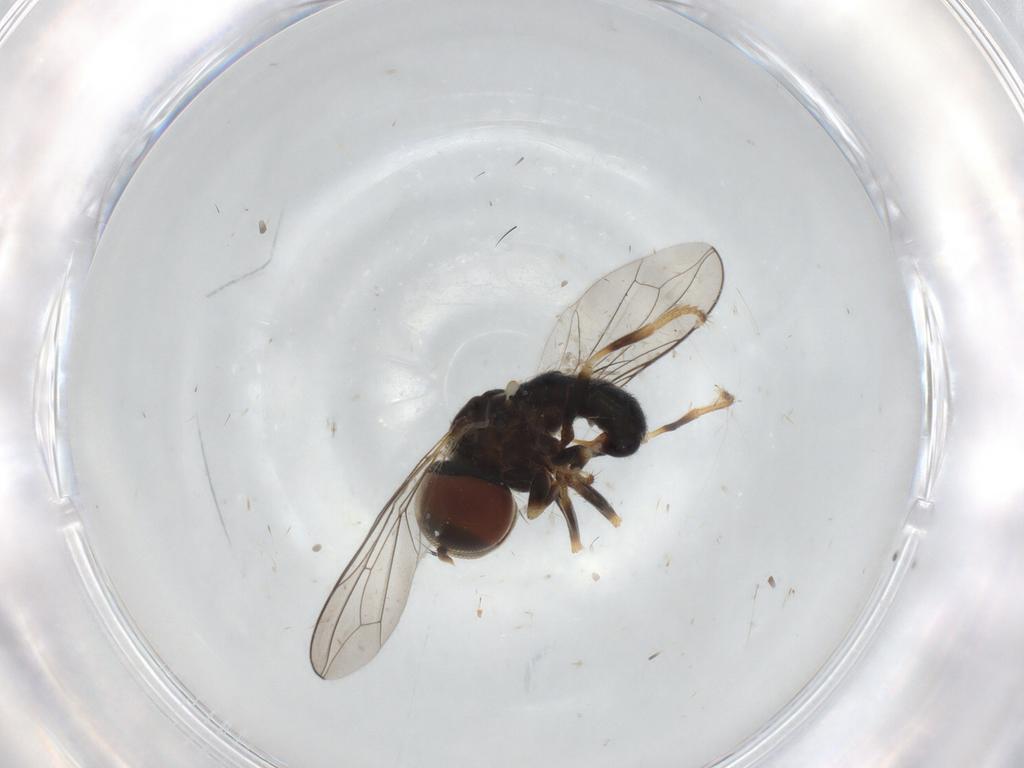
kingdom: Animalia
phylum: Arthropoda
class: Insecta
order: Diptera
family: Pipunculidae
